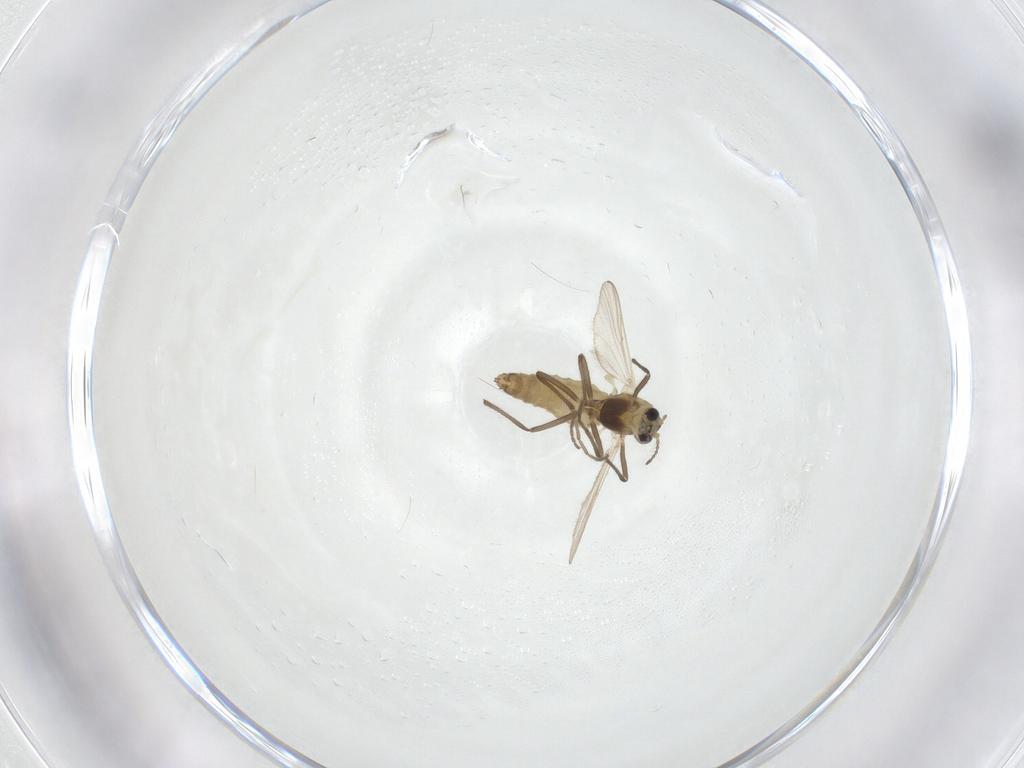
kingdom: Animalia
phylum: Arthropoda
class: Insecta
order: Diptera
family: Chironomidae
